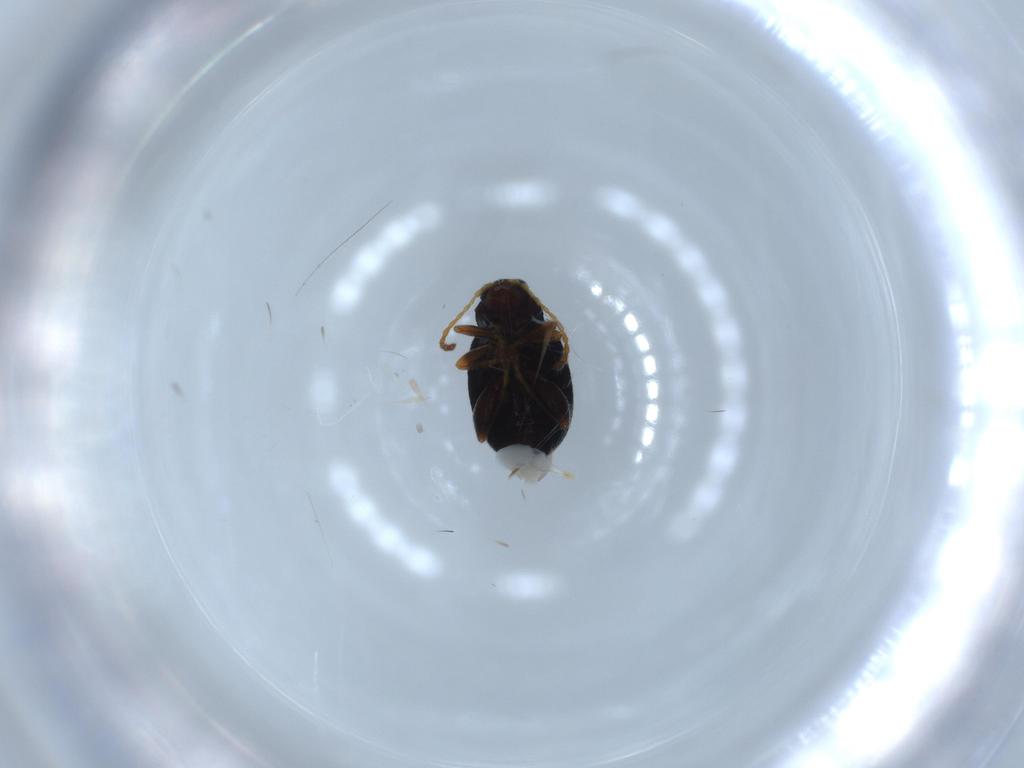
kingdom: Animalia
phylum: Arthropoda
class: Insecta
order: Coleoptera
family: Chrysomelidae
